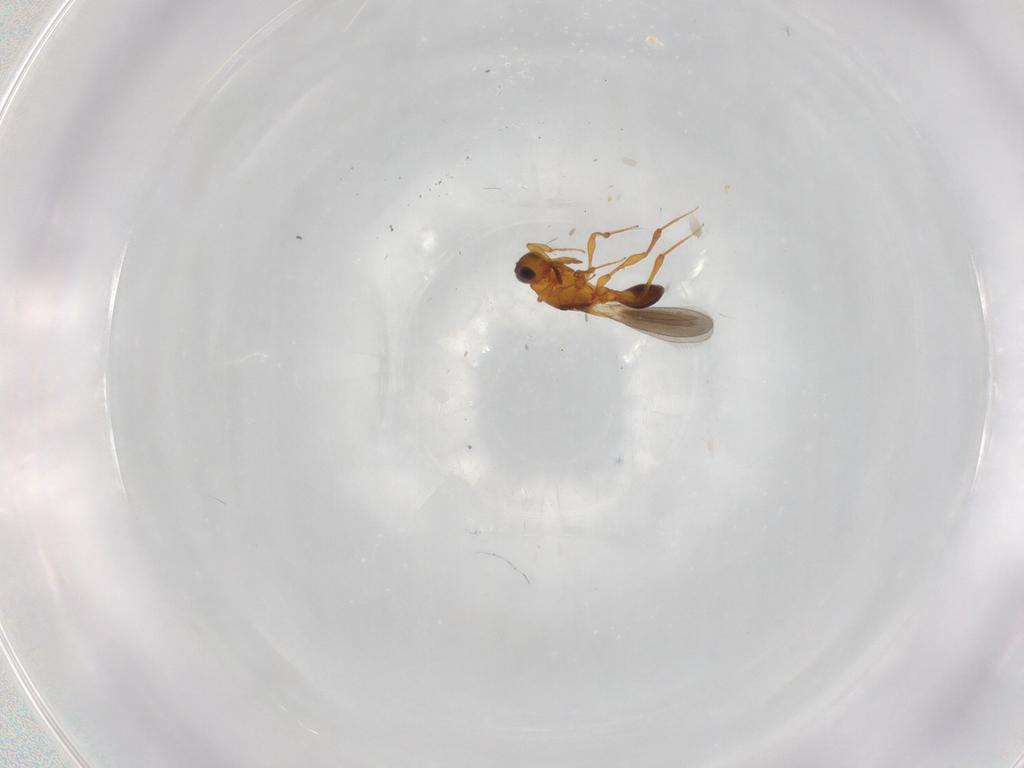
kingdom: Animalia
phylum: Arthropoda
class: Insecta
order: Hymenoptera
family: Platygastridae
